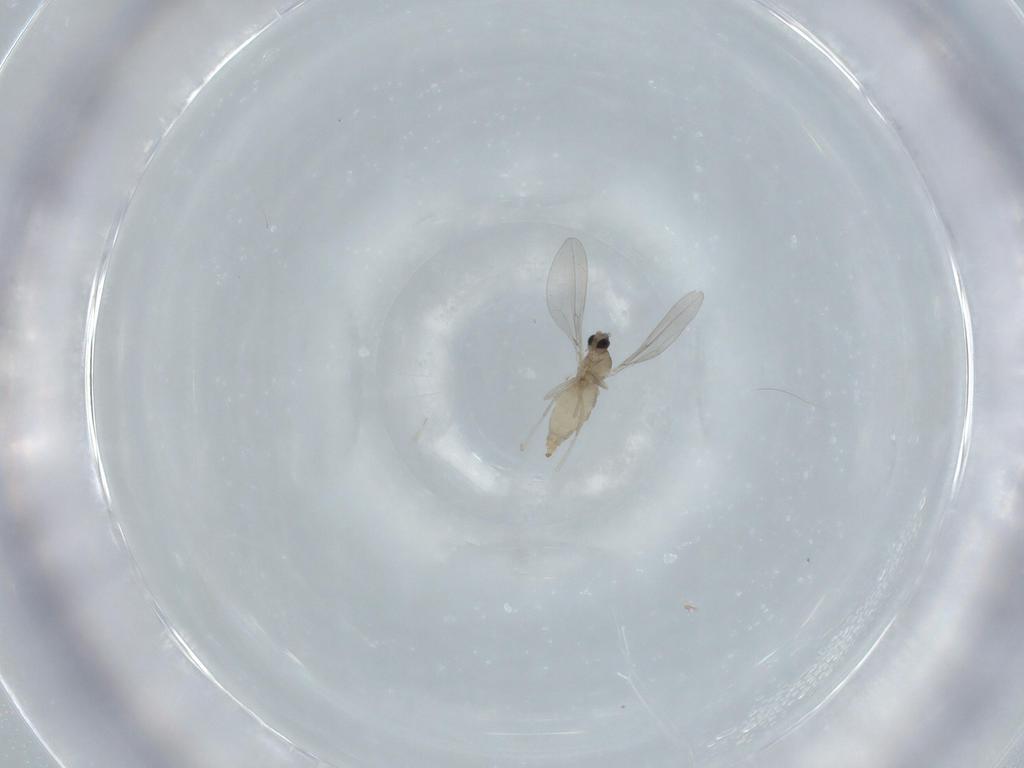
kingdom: Animalia
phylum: Arthropoda
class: Insecta
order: Diptera
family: Cecidomyiidae
